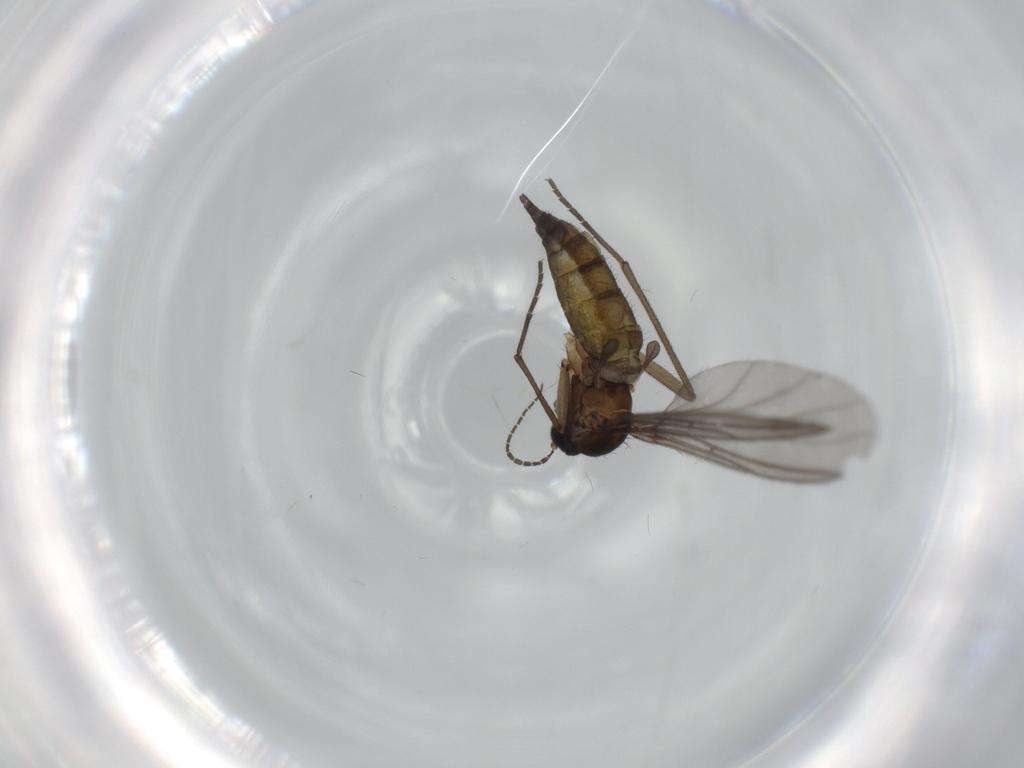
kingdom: Animalia
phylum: Arthropoda
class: Insecta
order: Diptera
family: Sciaridae
